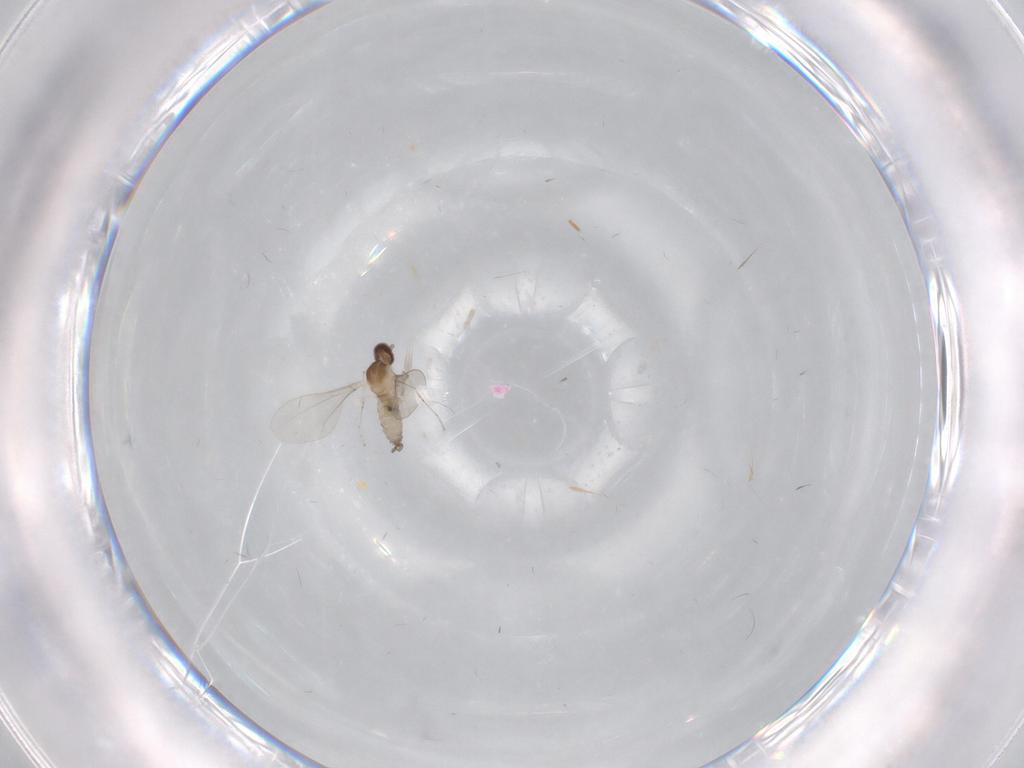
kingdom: Animalia
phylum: Arthropoda
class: Insecta
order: Diptera
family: Cecidomyiidae
